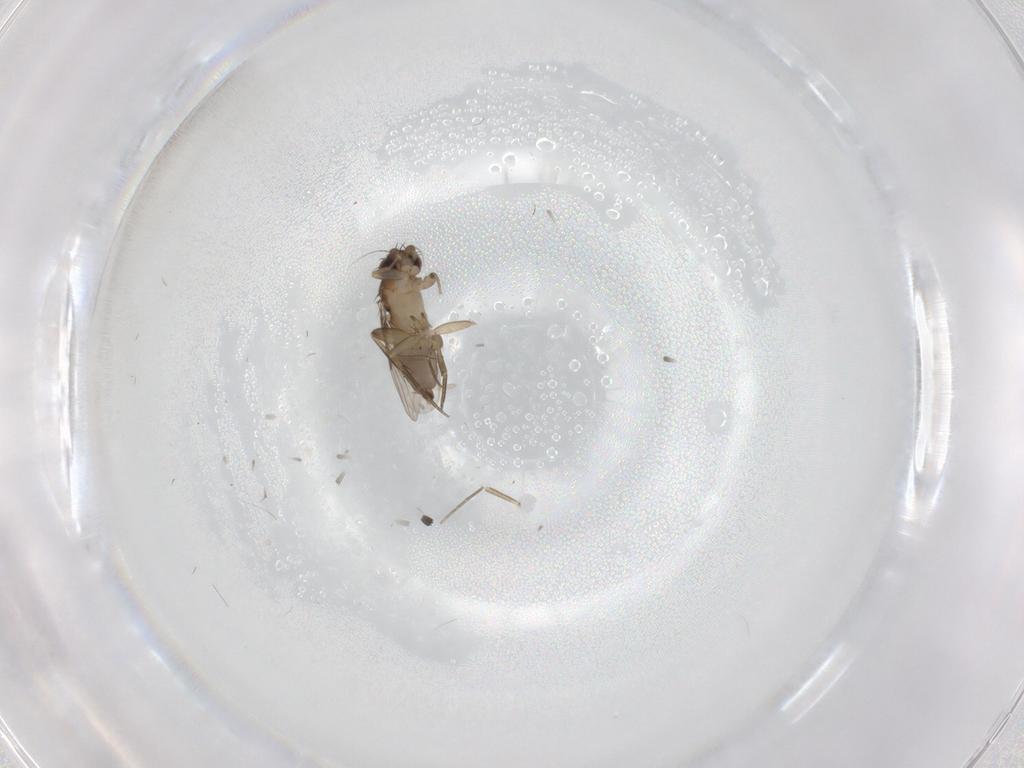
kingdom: Animalia
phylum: Arthropoda
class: Insecta
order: Diptera
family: Phoridae
